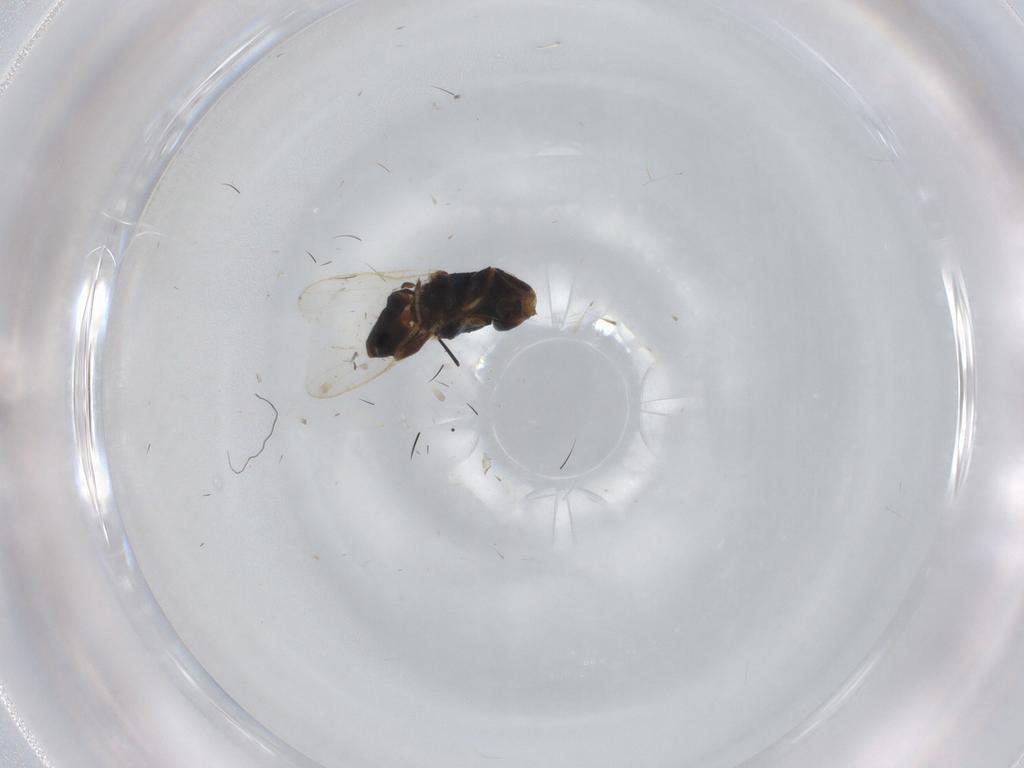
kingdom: Animalia
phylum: Arthropoda
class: Insecta
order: Diptera
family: Chloropidae
